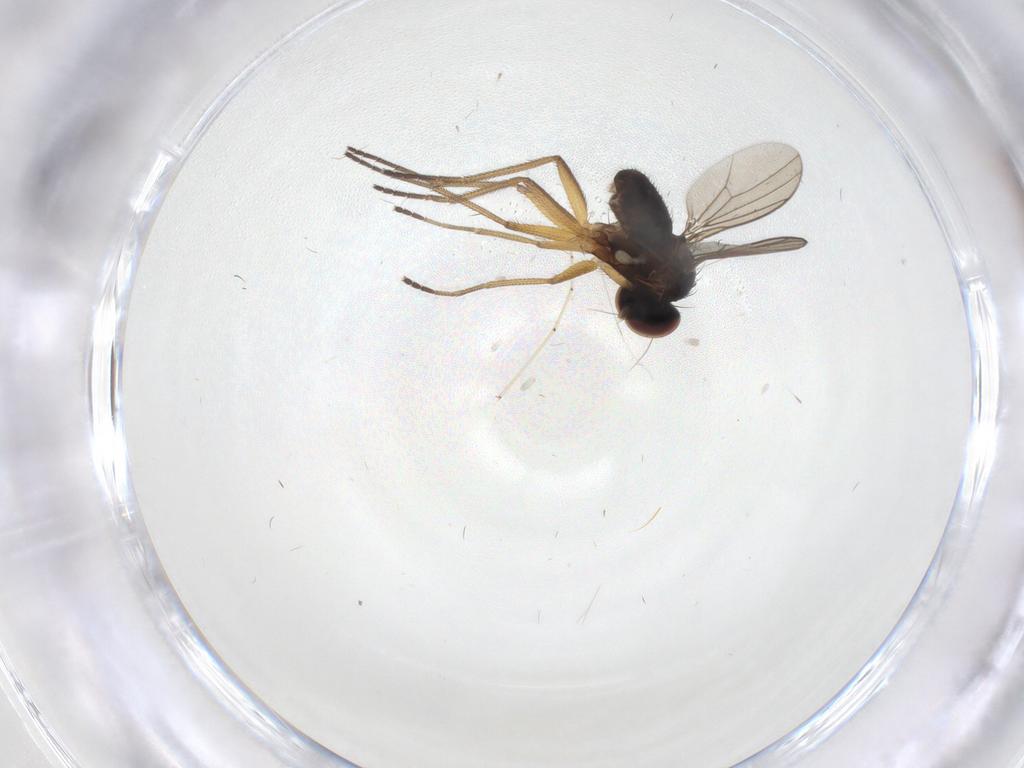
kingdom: Animalia
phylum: Arthropoda
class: Insecta
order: Diptera
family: Dolichopodidae
